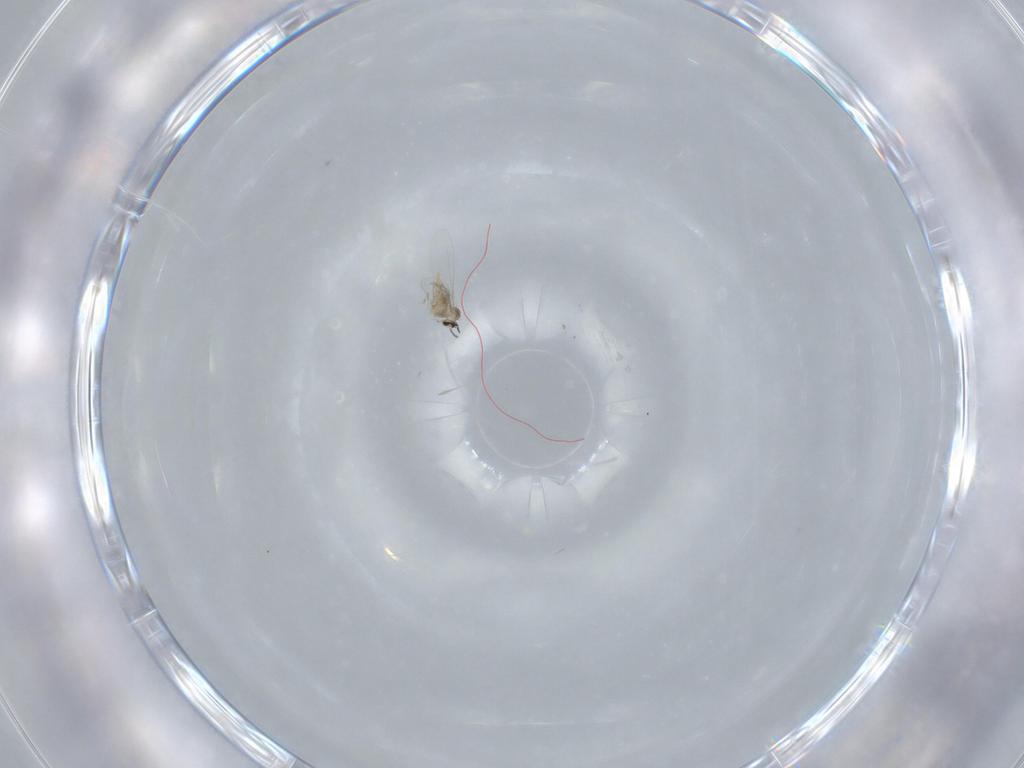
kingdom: Animalia
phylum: Arthropoda
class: Insecta
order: Diptera
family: Cecidomyiidae
